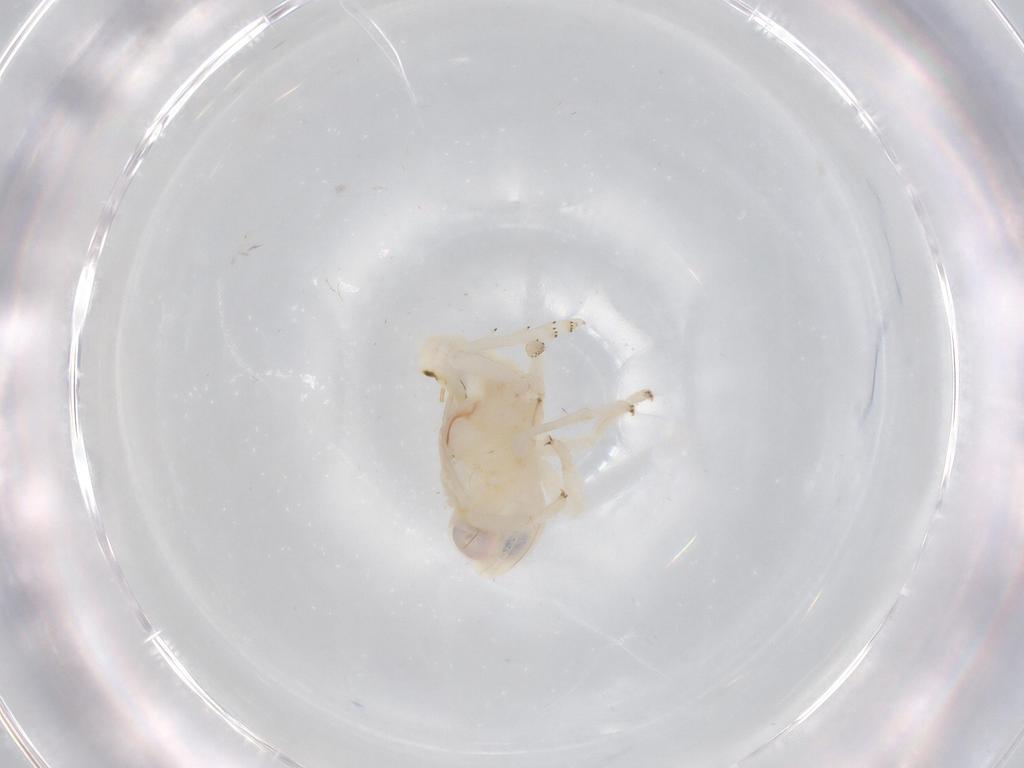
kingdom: Animalia
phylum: Arthropoda
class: Insecta
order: Hemiptera
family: Nogodinidae
